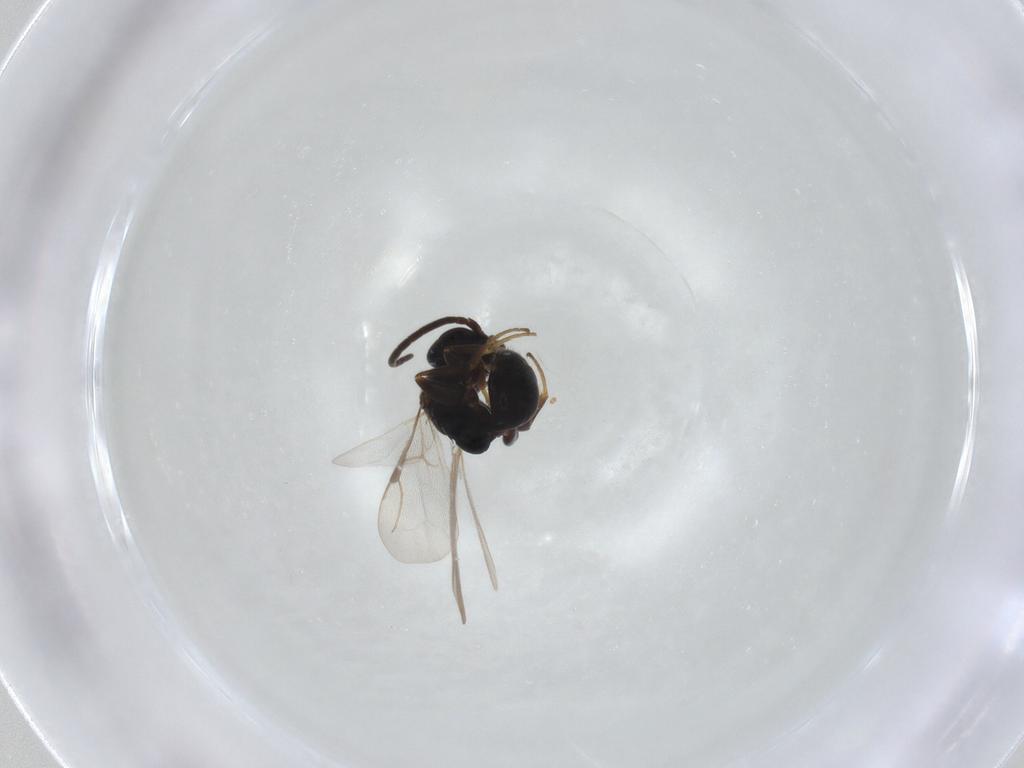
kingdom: Animalia
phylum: Arthropoda
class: Insecta
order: Hymenoptera
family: Bethylidae
